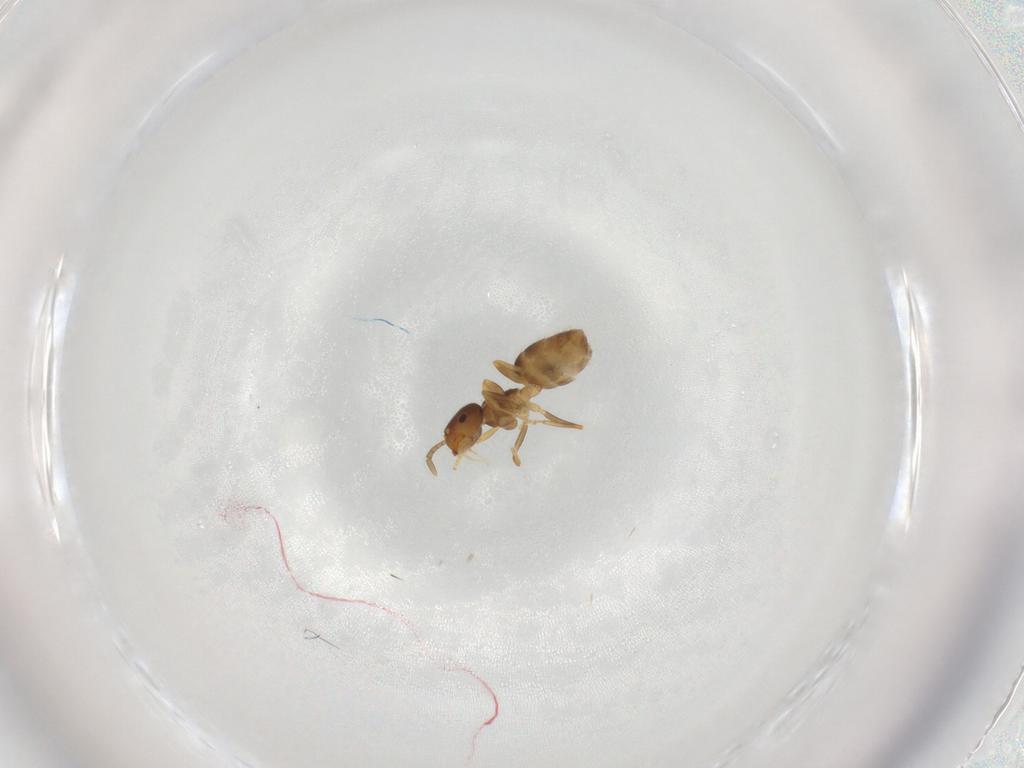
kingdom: Animalia
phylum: Arthropoda
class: Insecta
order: Hymenoptera
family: Formicidae
